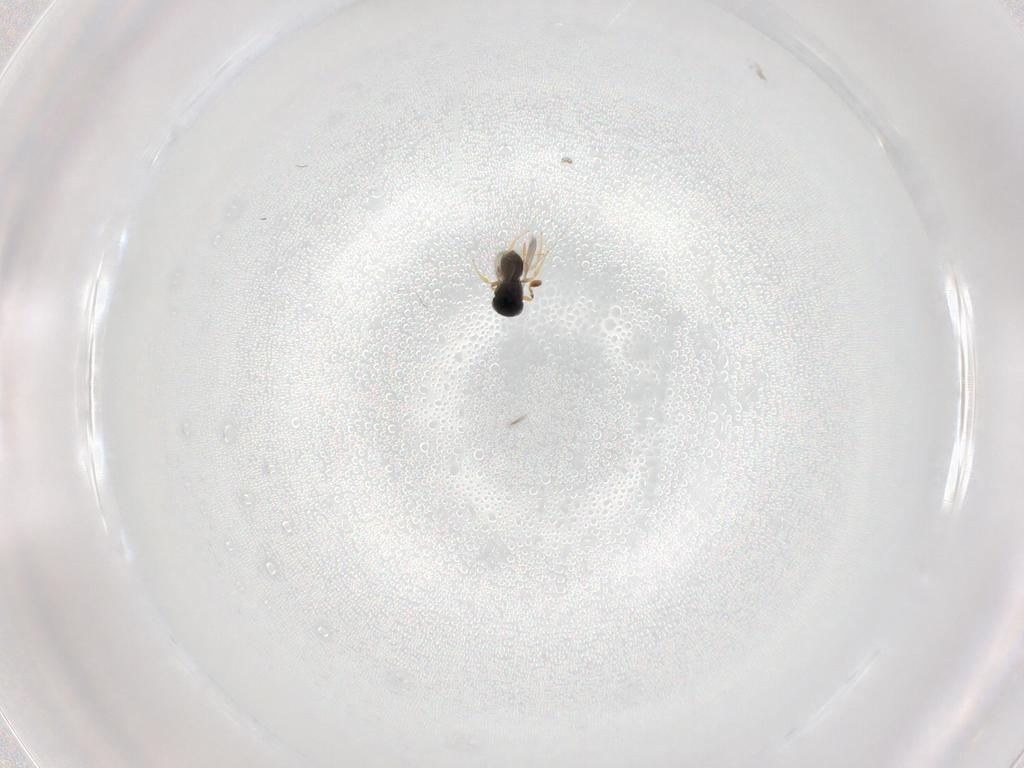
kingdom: Animalia
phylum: Arthropoda
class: Insecta
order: Hymenoptera
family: Scelionidae
